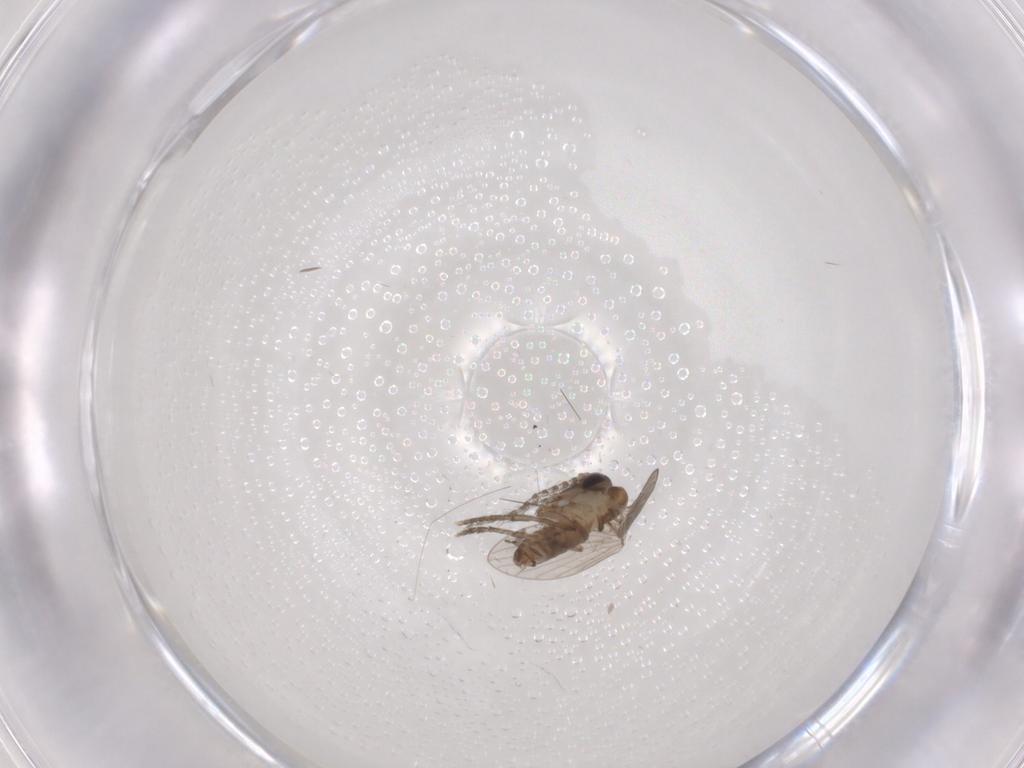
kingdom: Animalia
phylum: Arthropoda
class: Insecta
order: Diptera
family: Psychodidae
